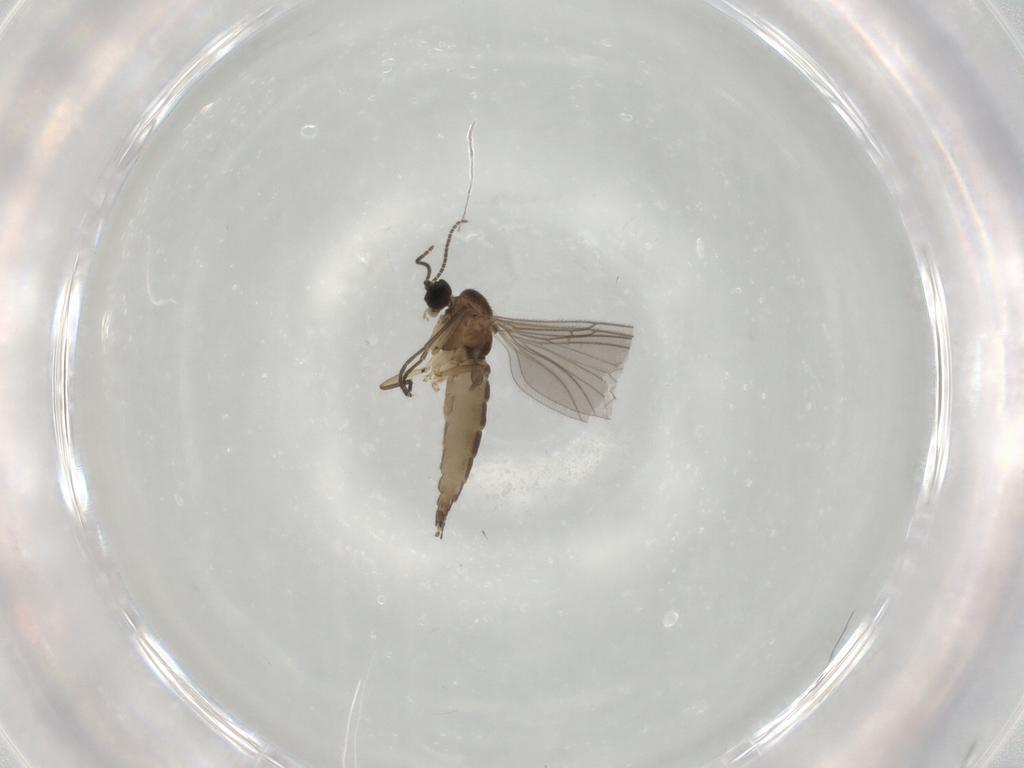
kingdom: Animalia
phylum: Arthropoda
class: Insecta
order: Diptera
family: Sciaridae
